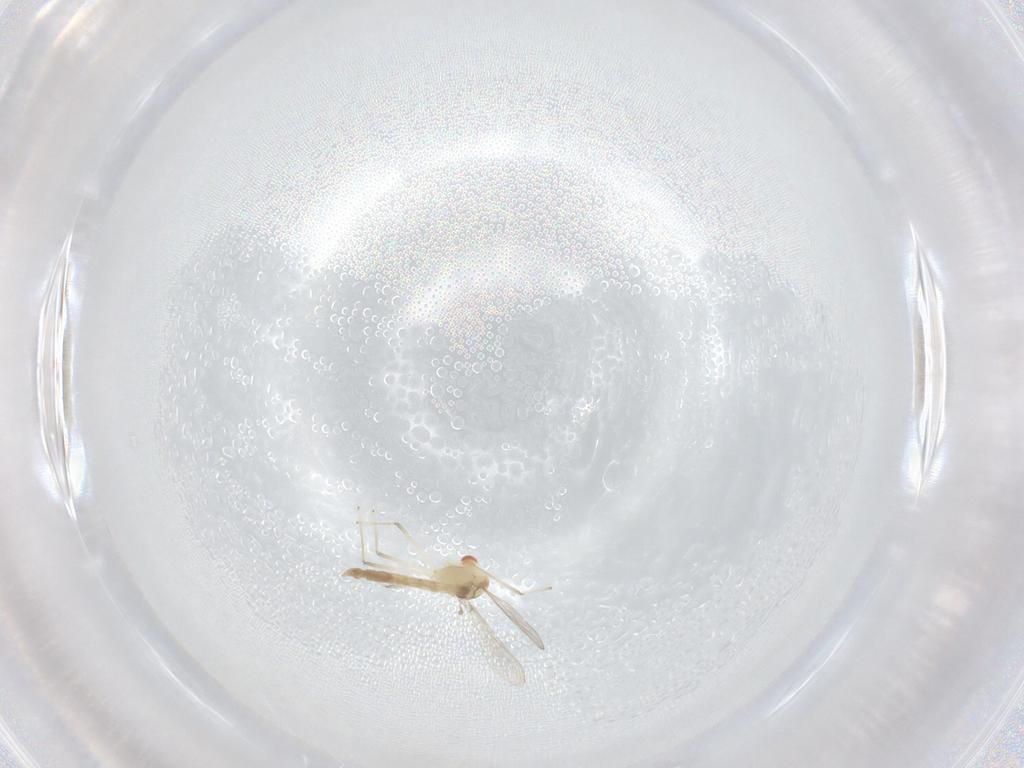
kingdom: Animalia
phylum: Arthropoda
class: Insecta
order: Diptera
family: Chironomidae
